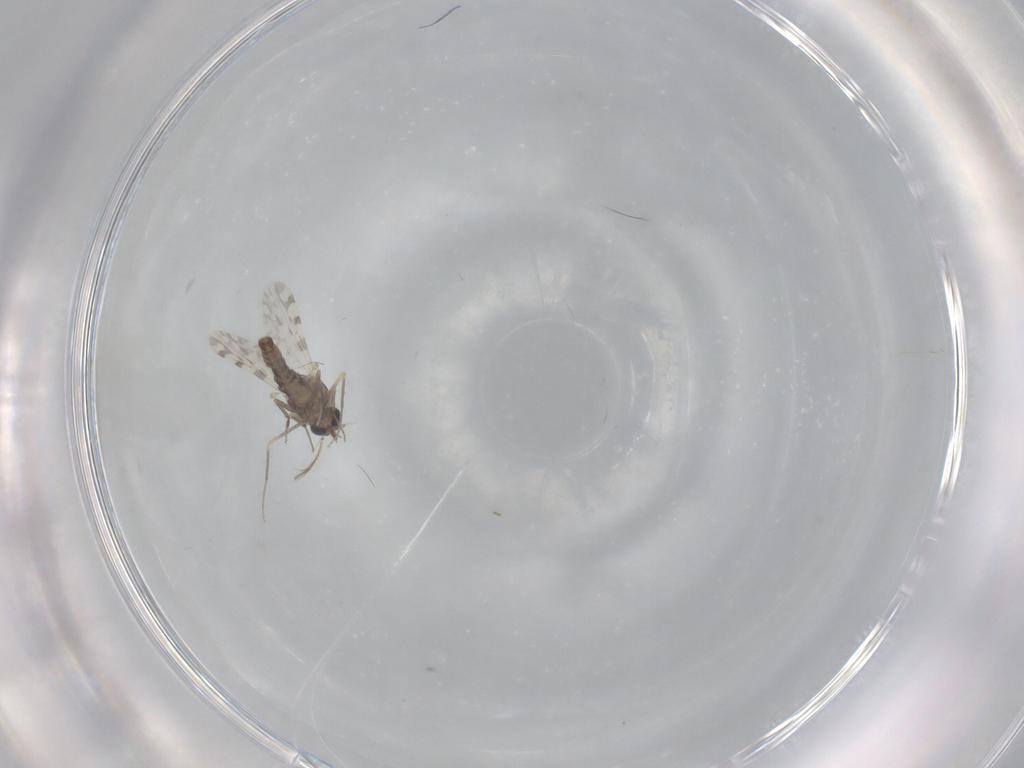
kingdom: Animalia
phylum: Arthropoda
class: Insecta
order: Diptera
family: Ceratopogonidae
